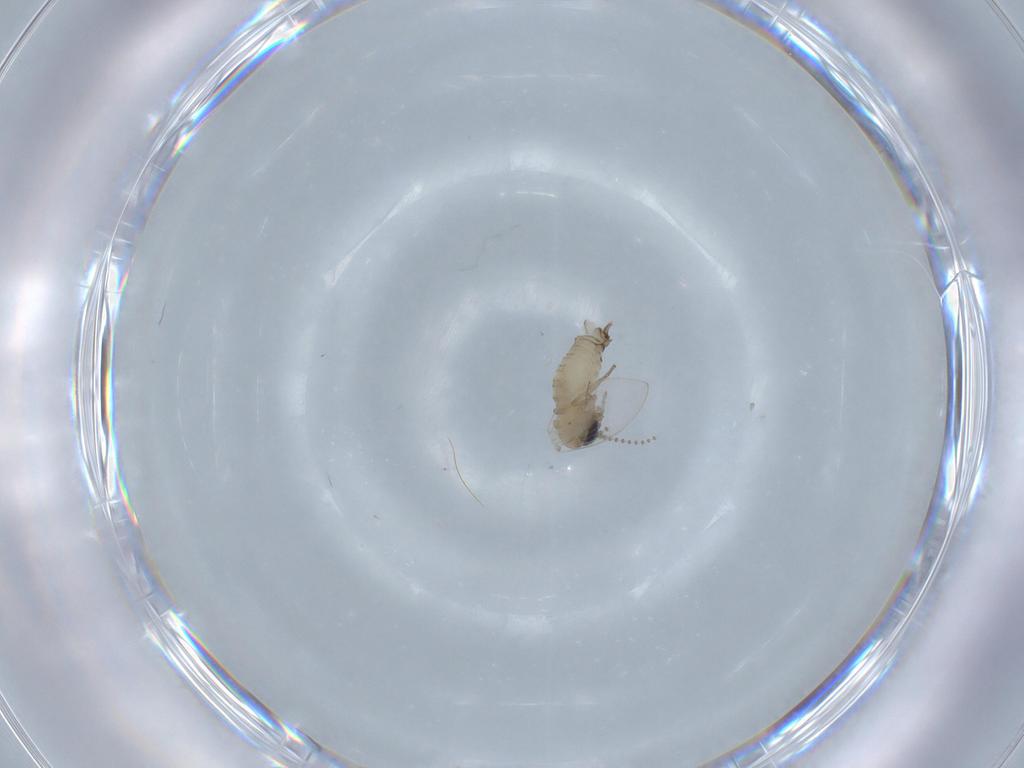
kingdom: Animalia
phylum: Arthropoda
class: Insecta
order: Diptera
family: Psychodidae
